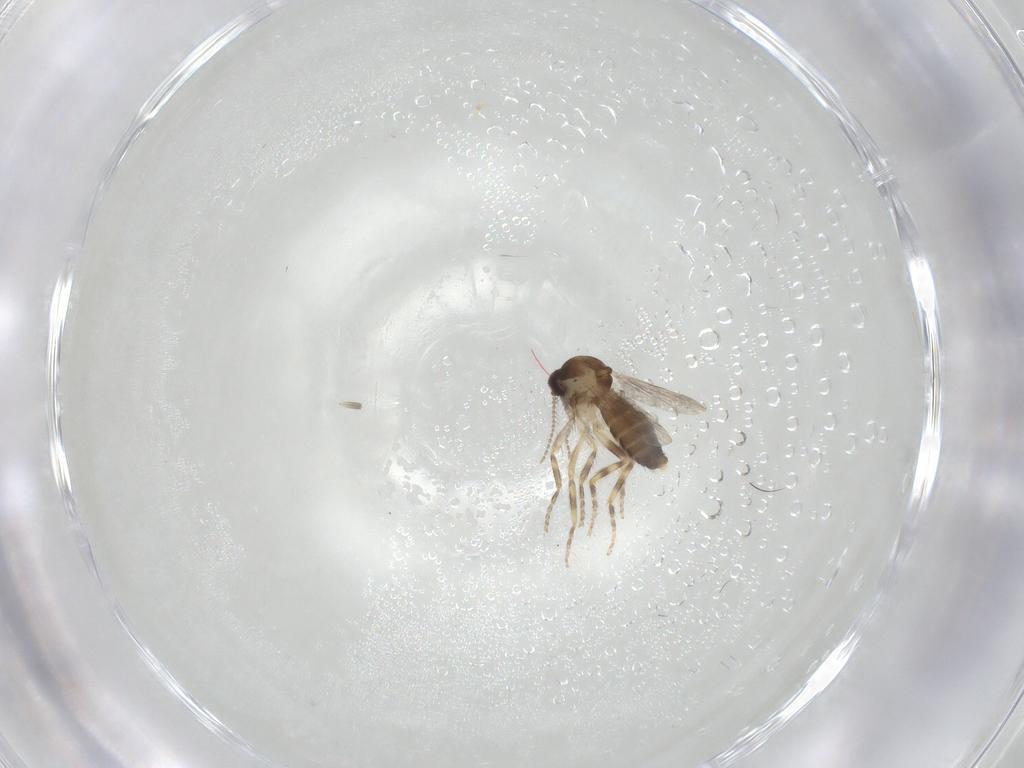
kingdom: Animalia
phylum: Arthropoda
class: Insecta
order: Diptera
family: Ceratopogonidae
